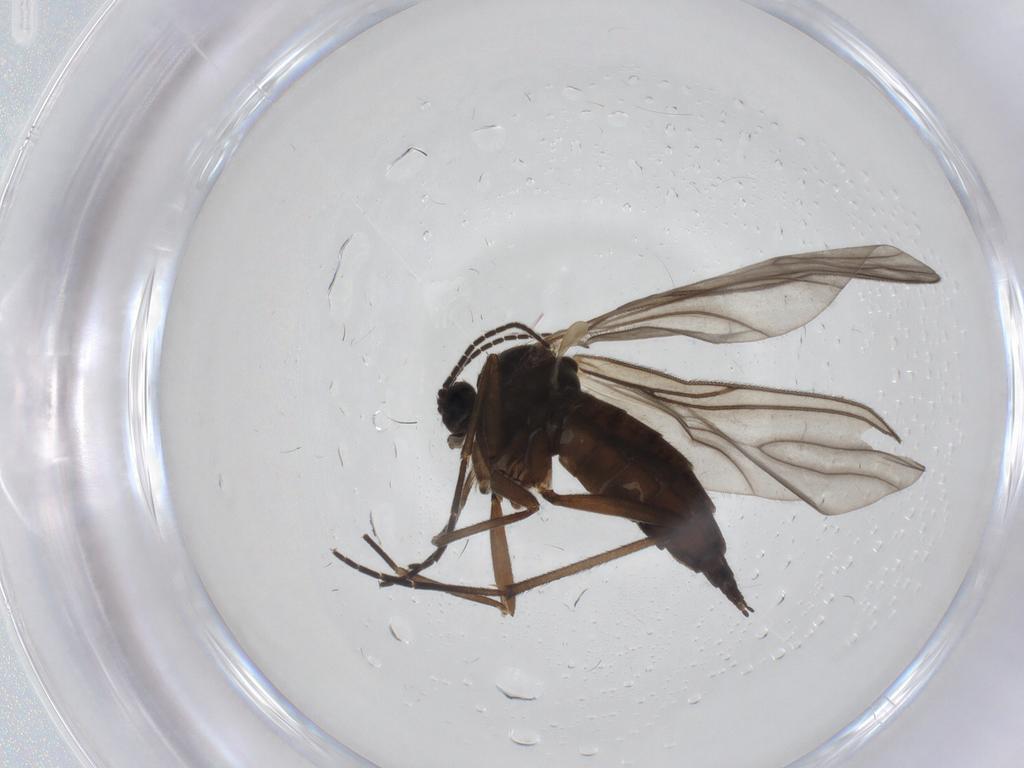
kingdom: Animalia
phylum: Arthropoda
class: Insecta
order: Diptera
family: Sciaridae
